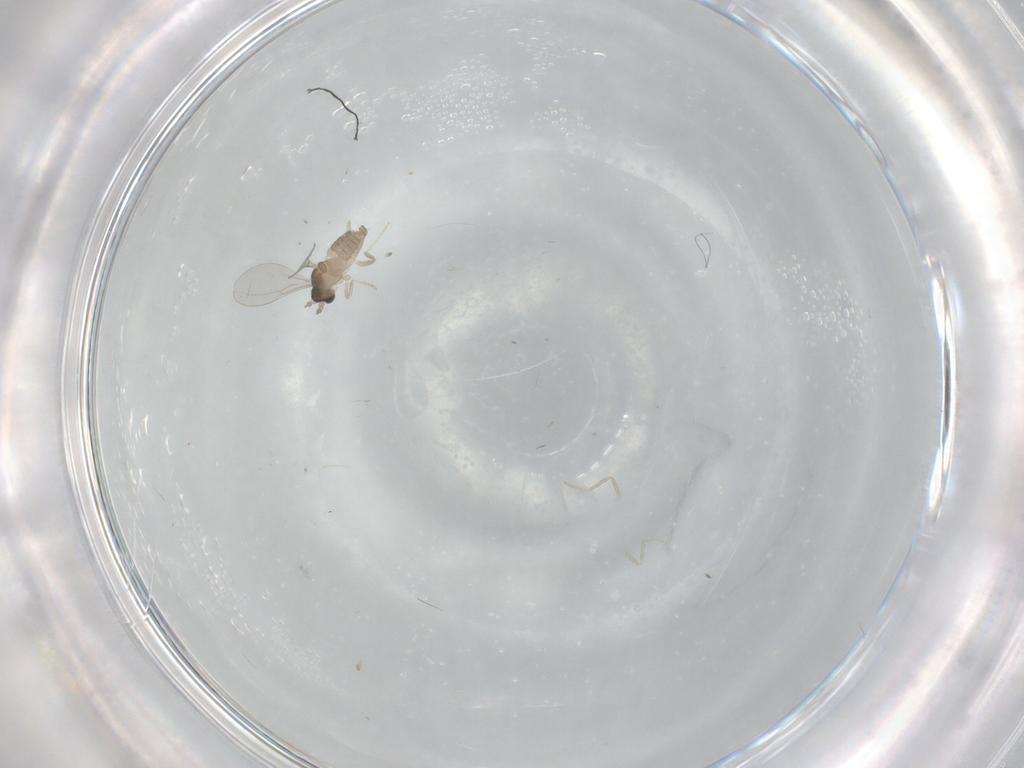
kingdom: Animalia
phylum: Arthropoda
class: Insecta
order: Diptera
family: Cecidomyiidae
